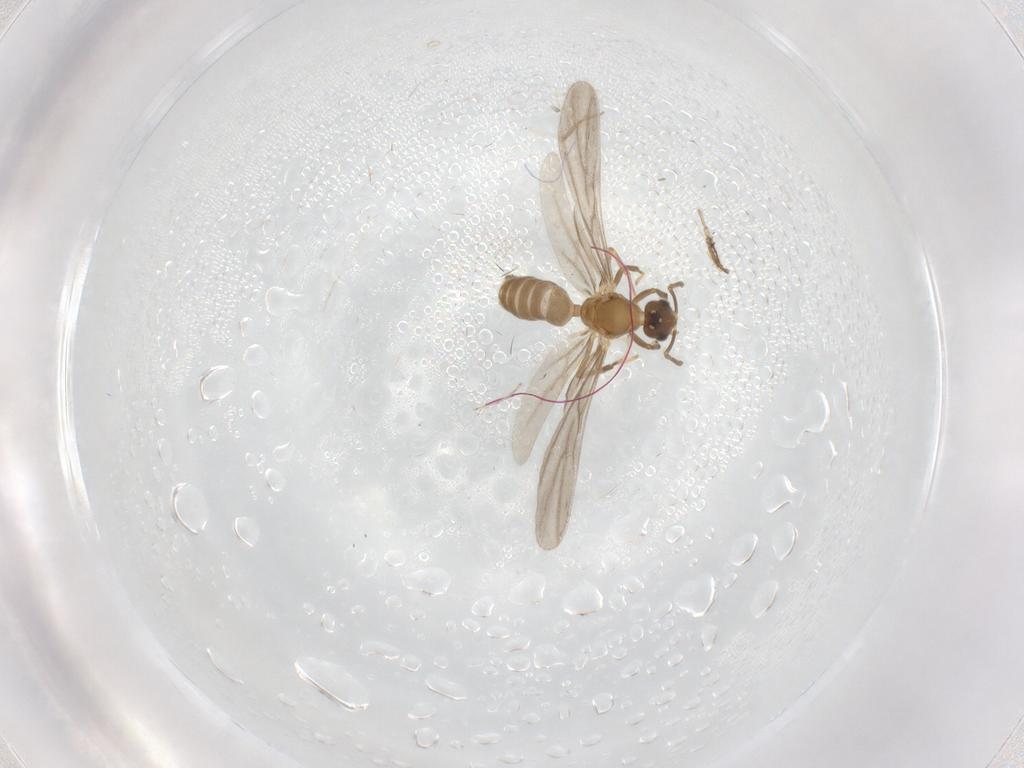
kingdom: Animalia
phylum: Arthropoda
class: Insecta
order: Hymenoptera
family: Formicidae
